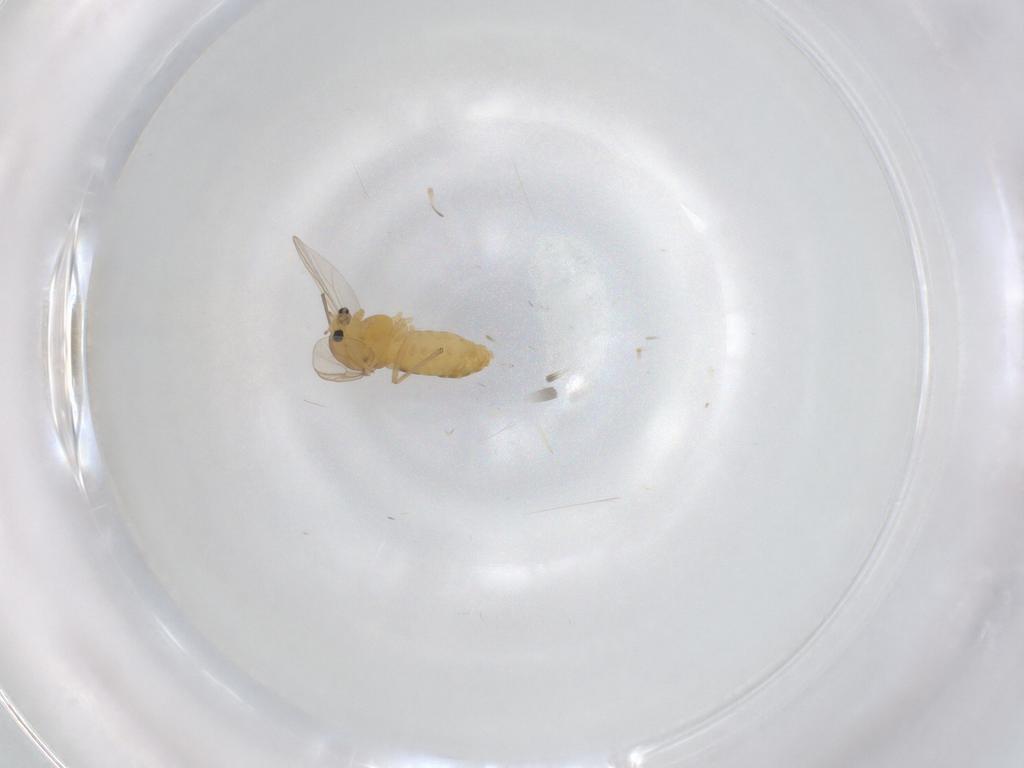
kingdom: Animalia
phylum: Arthropoda
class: Insecta
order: Diptera
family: Chironomidae
